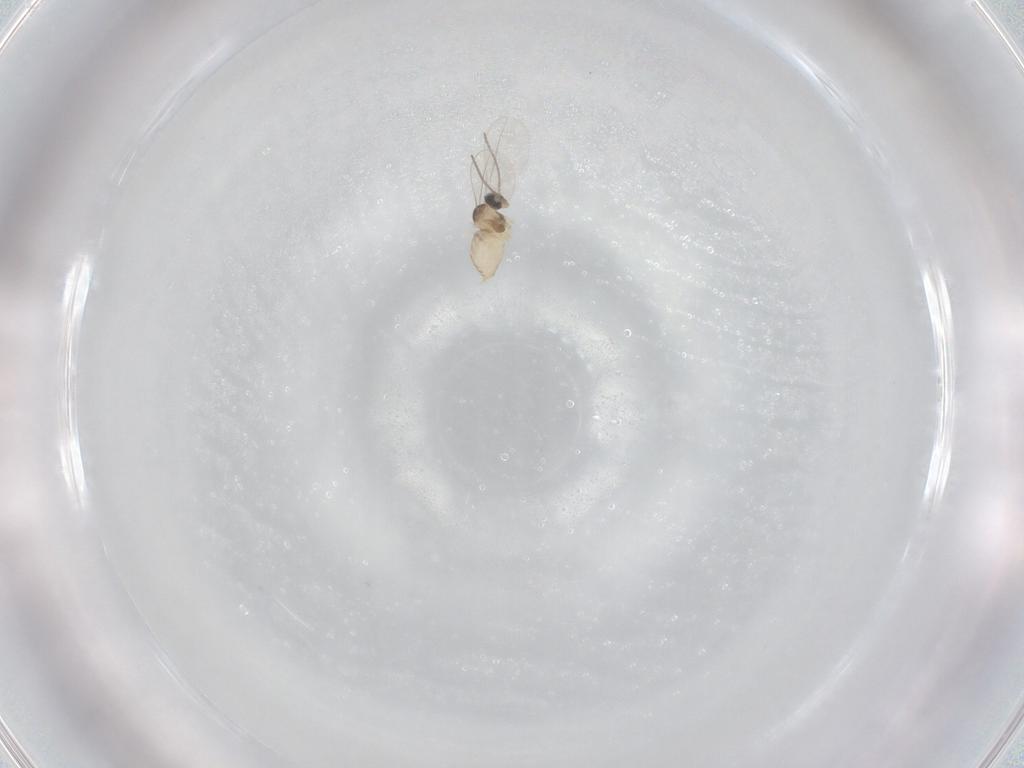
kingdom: Animalia
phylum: Arthropoda
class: Insecta
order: Diptera
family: Cecidomyiidae
